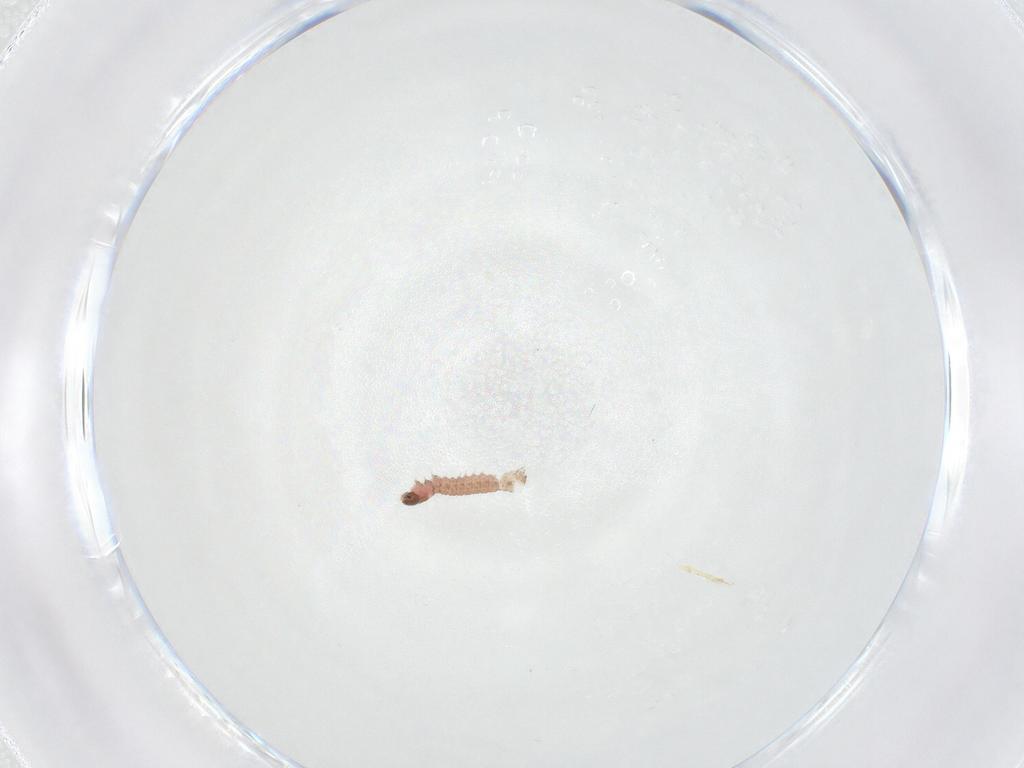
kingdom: Animalia
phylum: Arthropoda
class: Insecta
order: Lepidoptera
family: Gelechiidae
